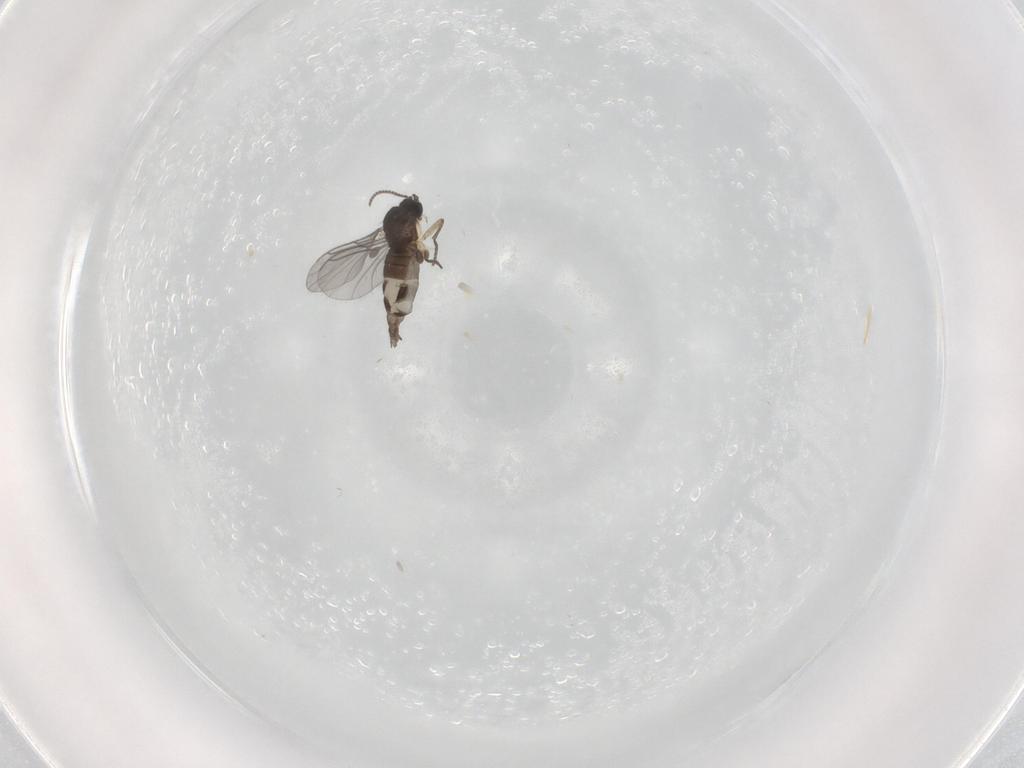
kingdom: Animalia
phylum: Arthropoda
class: Insecta
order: Diptera
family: Sciaridae
